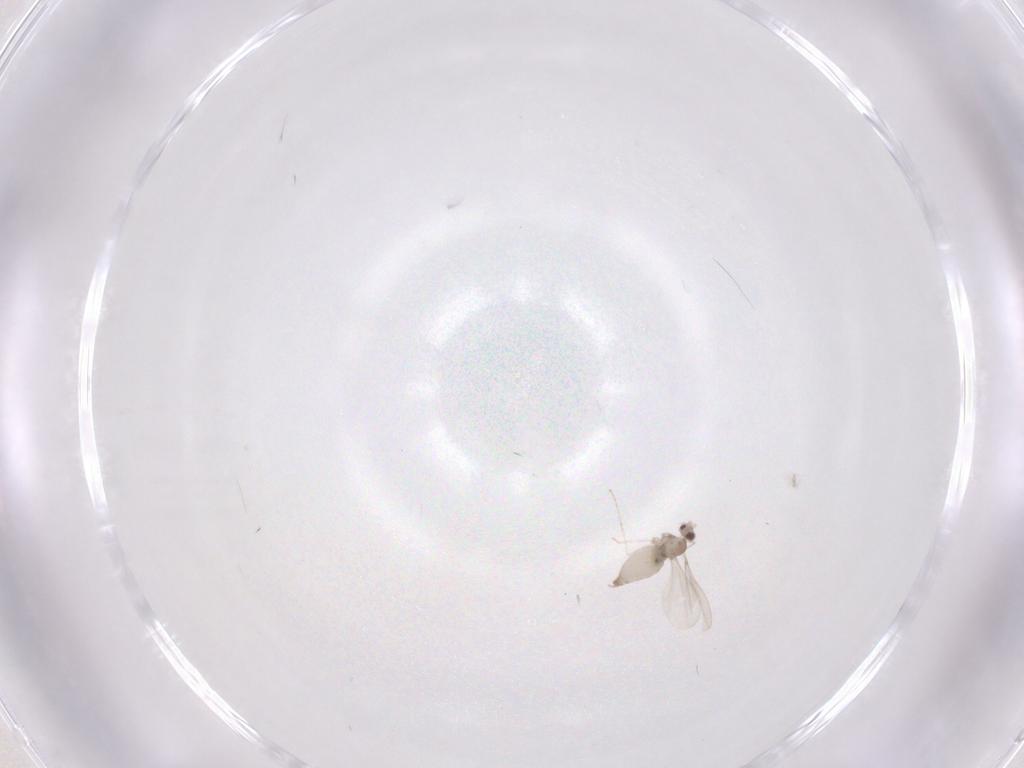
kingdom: Animalia
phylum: Arthropoda
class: Insecta
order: Diptera
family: Cecidomyiidae
